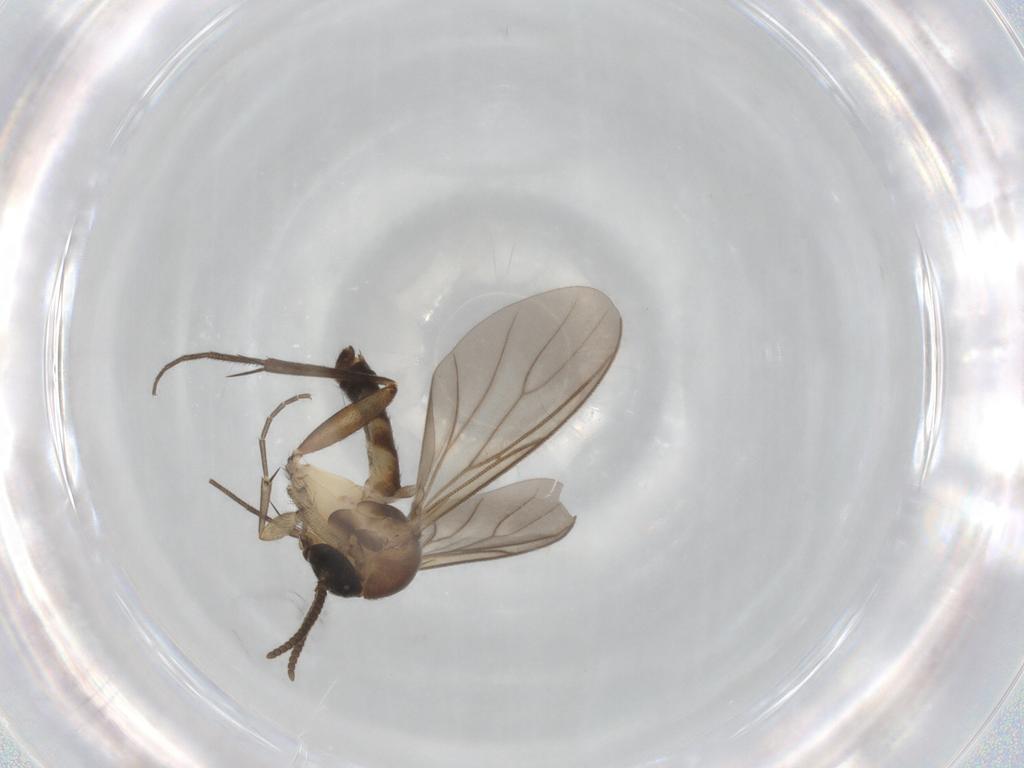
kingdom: Animalia
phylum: Arthropoda
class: Insecta
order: Diptera
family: Mycetophilidae
